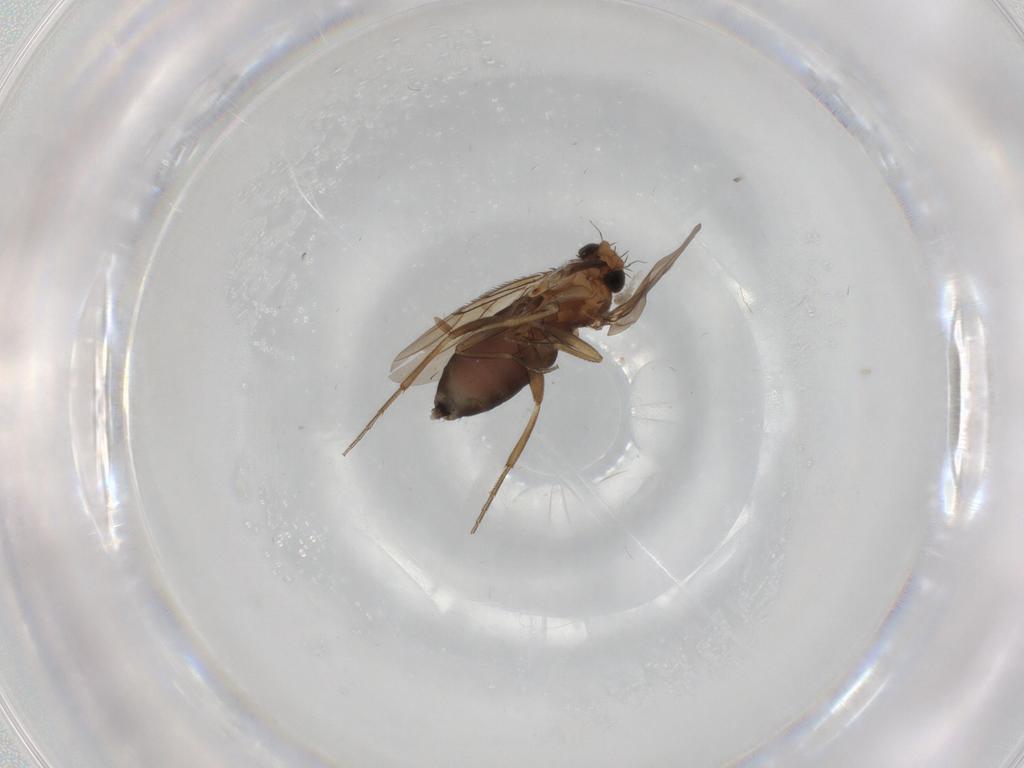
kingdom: Animalia
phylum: Arthropoda
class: Insecta
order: Diptera
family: Phoridae
